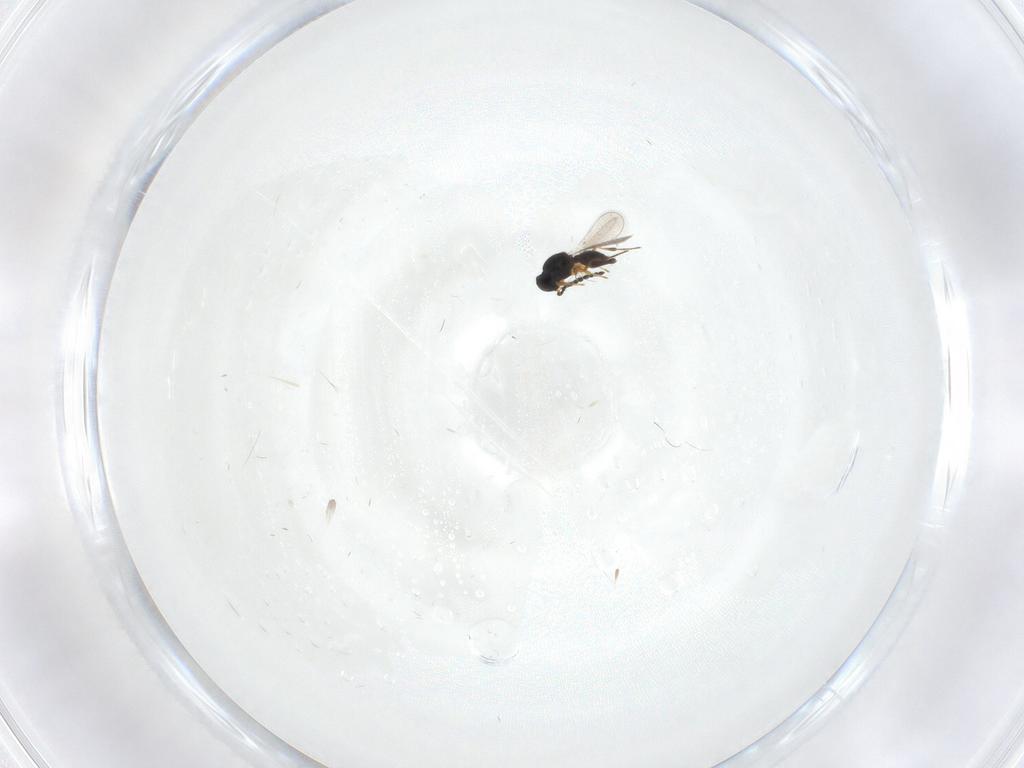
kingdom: Animalia
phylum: Arthropoda
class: Insecta
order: Hymenoptera
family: Platygastridae
